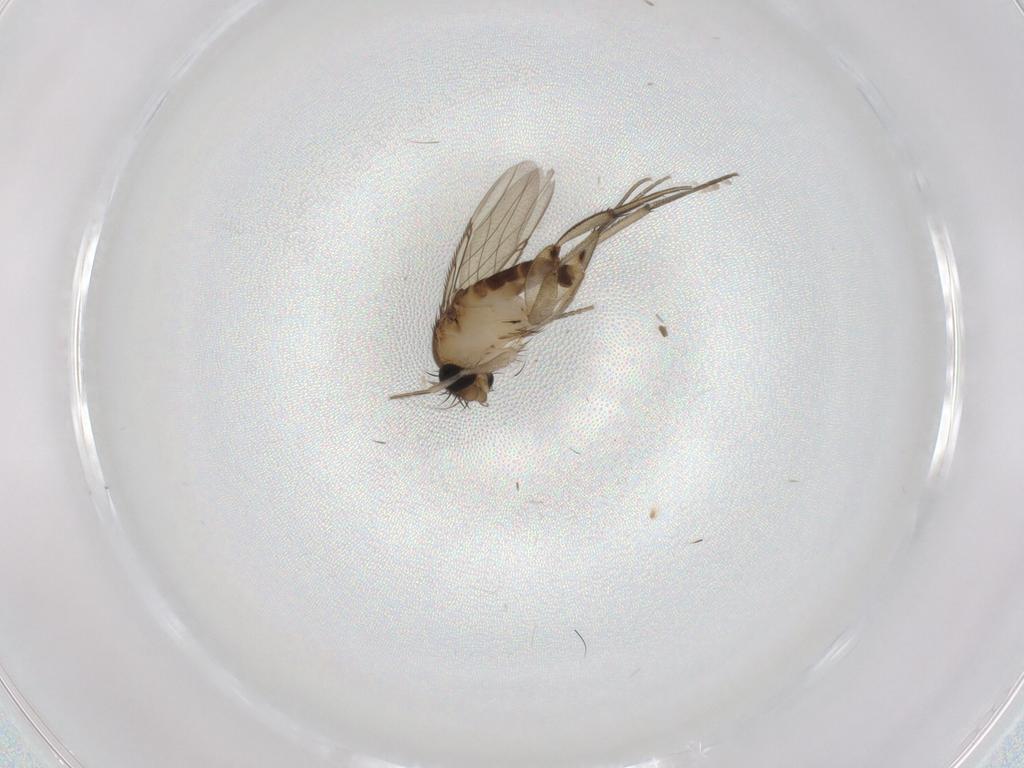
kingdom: Animalia
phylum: Arthropoda
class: Insecta
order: Diptera
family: Phoridae
